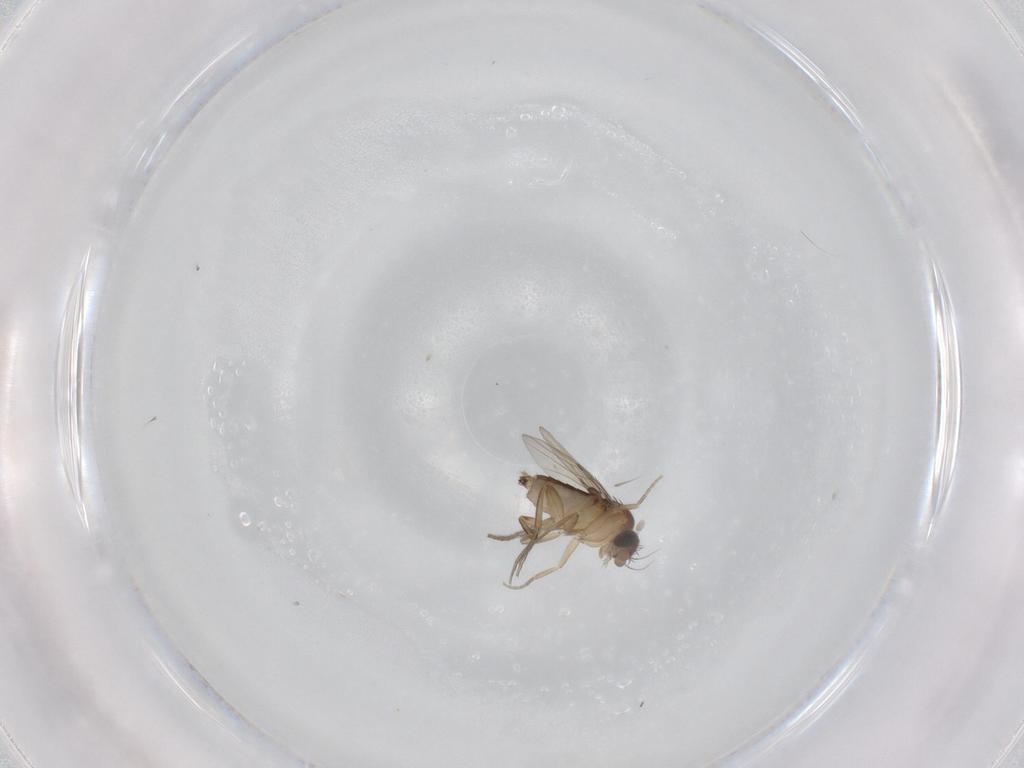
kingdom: Animalia
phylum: Arthropoda
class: Insecta
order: Diptera
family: Phoridae
